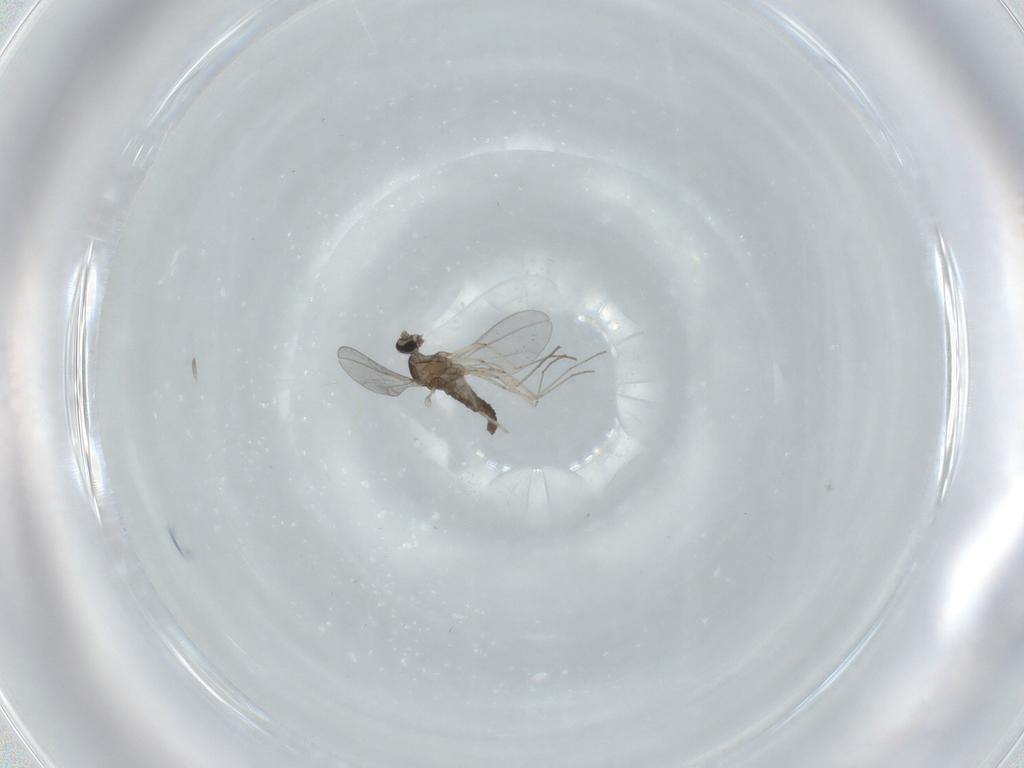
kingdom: Animalia
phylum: Arthropoda
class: Insecta
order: Diptera
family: Cecidomyiidae
